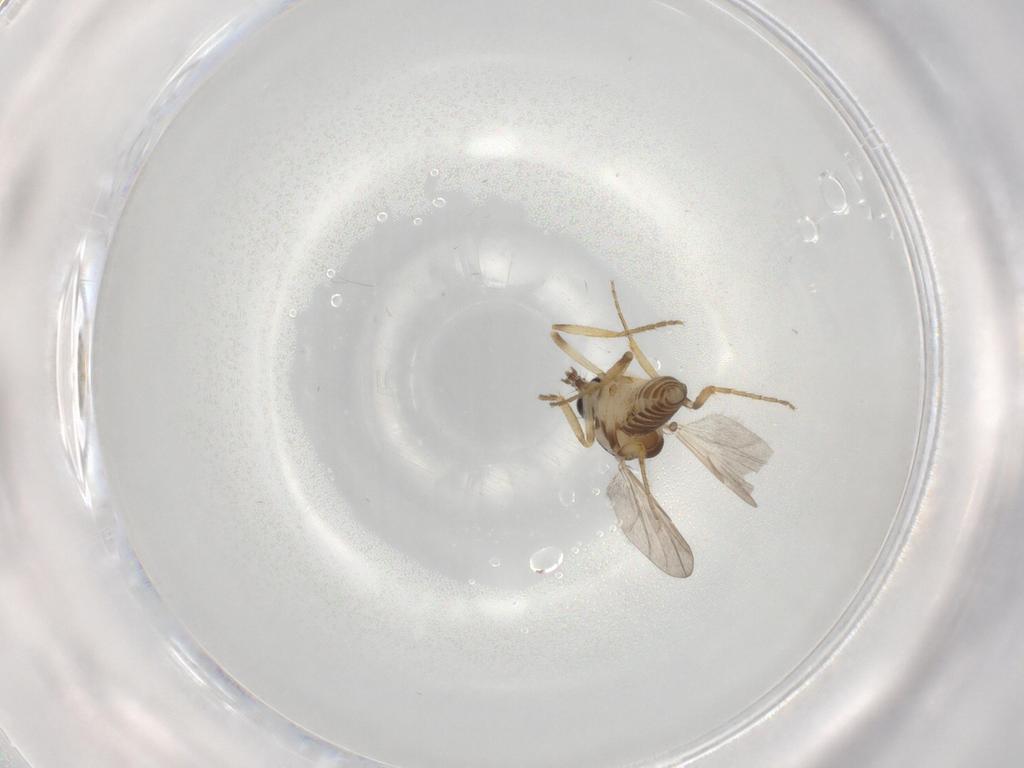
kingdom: Animalia
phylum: Arthropoda
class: Insecta
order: Diptera
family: Ceratopogonidae
